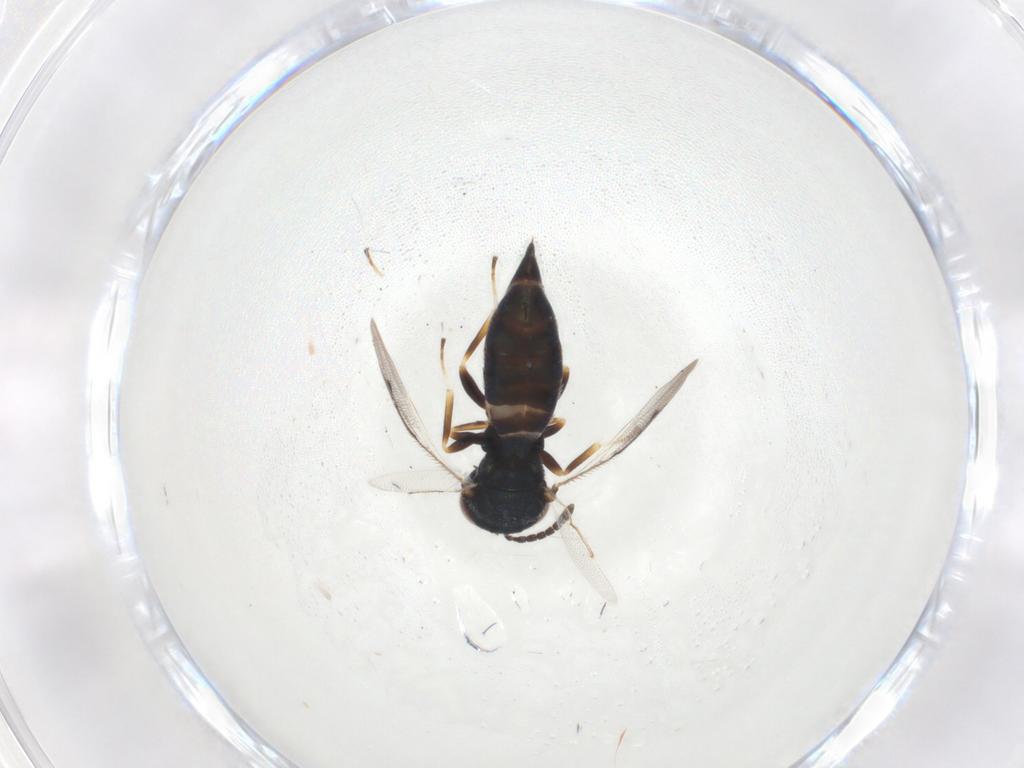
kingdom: Animalia
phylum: Arthropoda
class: Insecta
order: Hymenoptera
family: Pteromalidae
